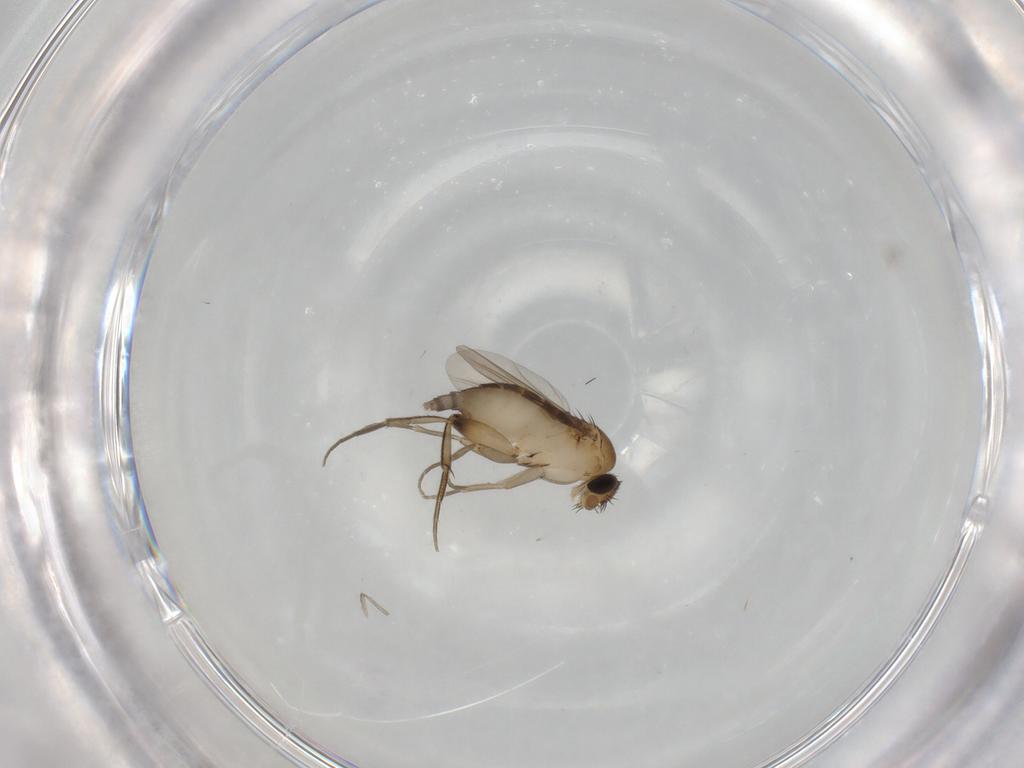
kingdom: Animalia
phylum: Arthropoda
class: Insecta
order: Diptera
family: Phoridae
